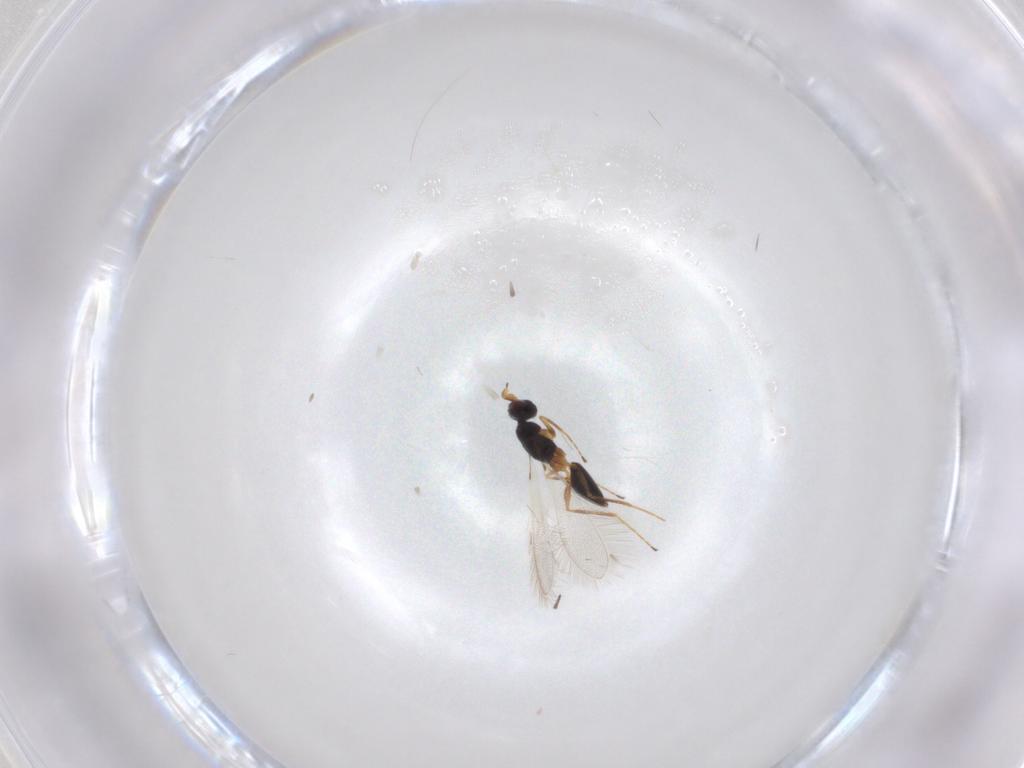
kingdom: Animalia
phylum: Arthropoda
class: Insecta
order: Hymenoptera
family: Mymaridae
